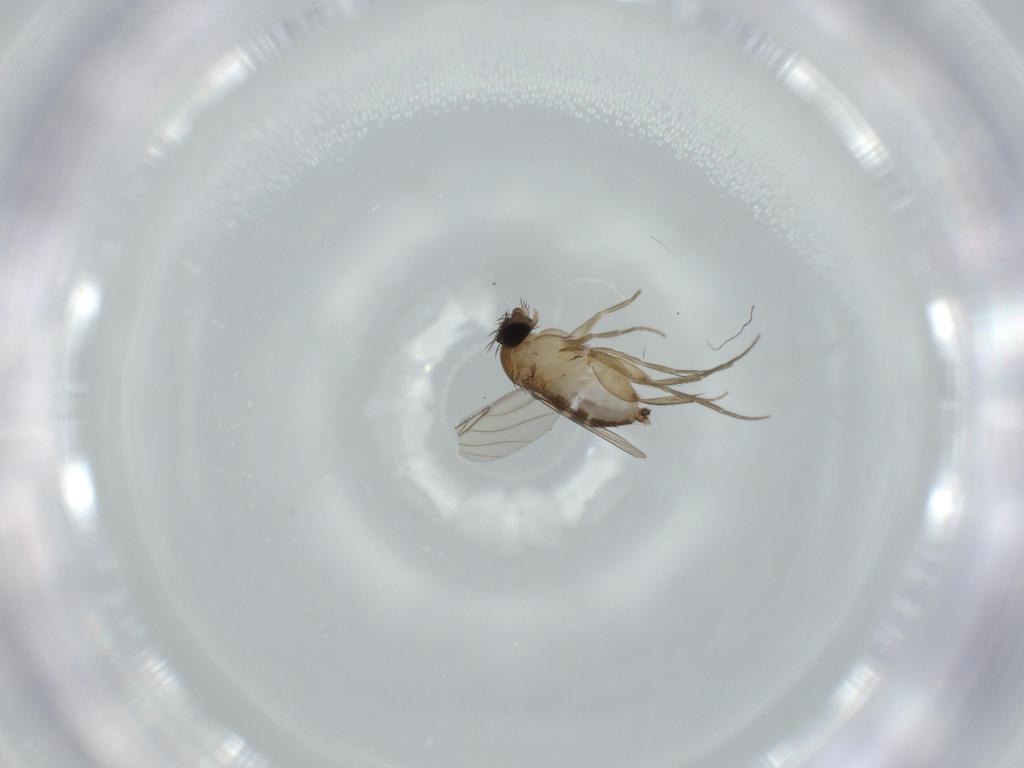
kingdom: Animalia
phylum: Arthropoda
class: Insecta
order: Diptera
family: Phoridae
